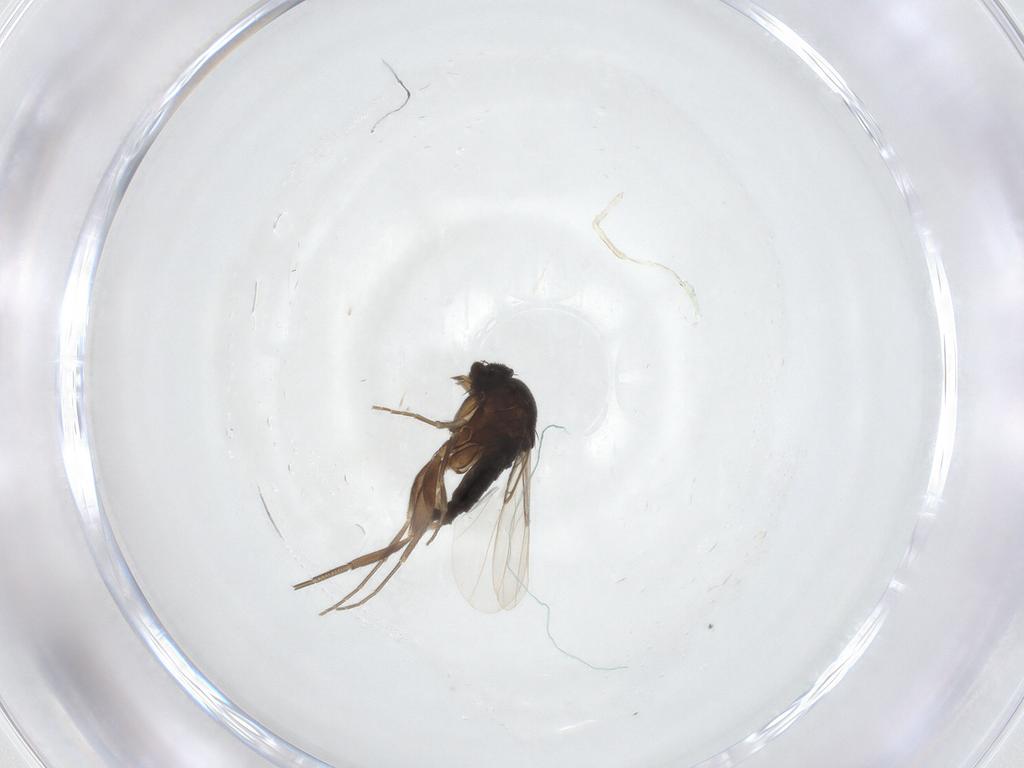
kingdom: Animalia
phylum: Arthropoda
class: Insecta
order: Diptera
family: Phoridae
